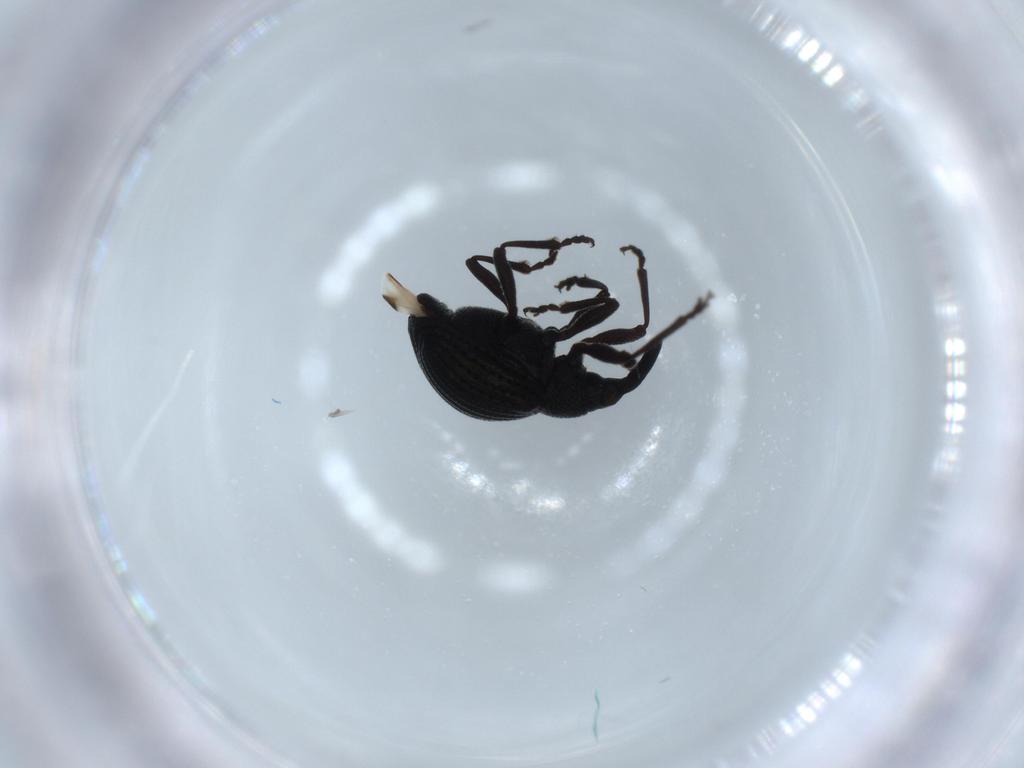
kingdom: Animalia
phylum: Arthropoda
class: Insecta
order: Coleoptera
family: Brentidae
